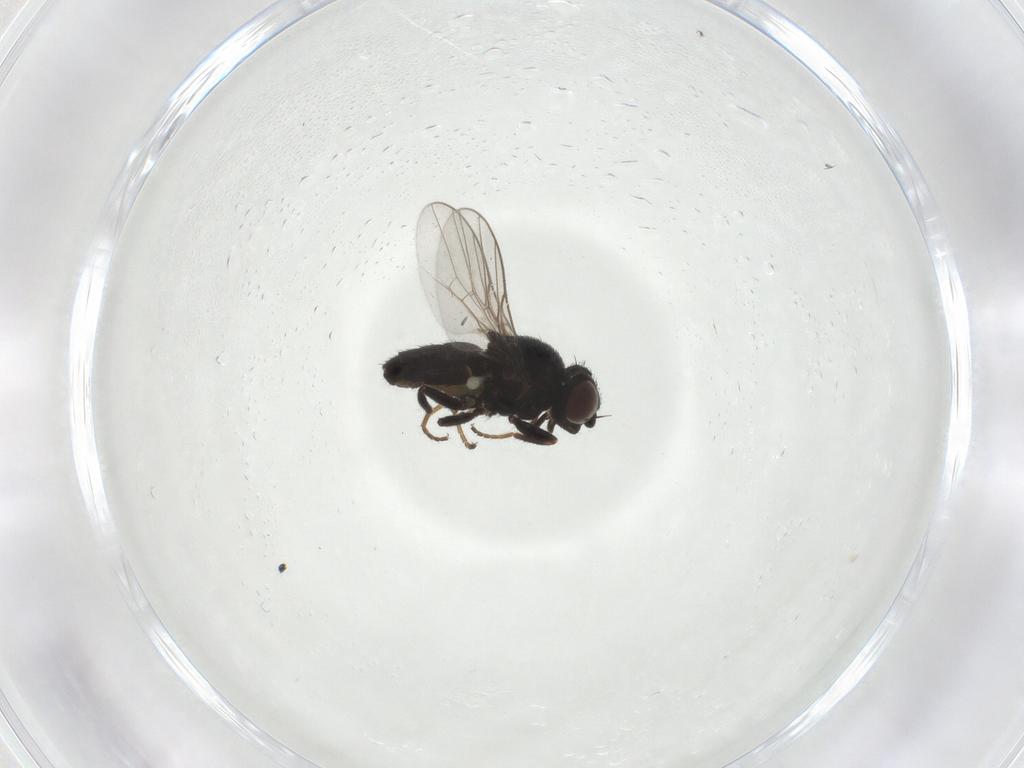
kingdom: Animalia
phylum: Arthropoda
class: Insecta
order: Diptera
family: Chloropidae
